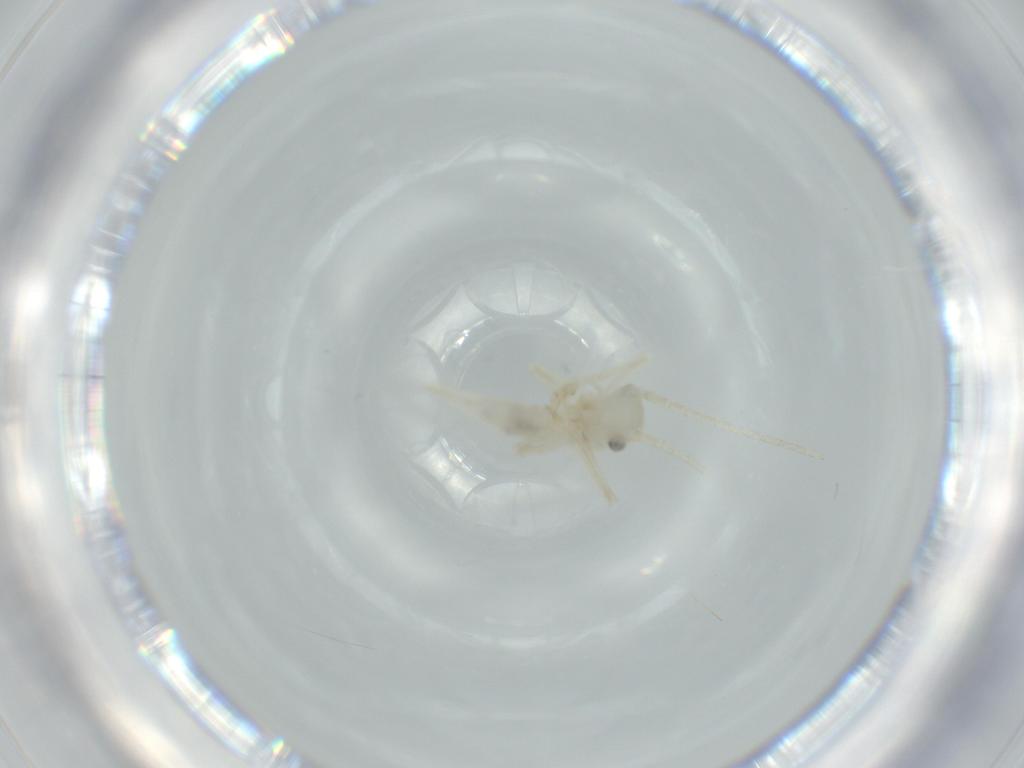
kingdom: Animalia
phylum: Arthropoda
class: Insecta
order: Orthoptera
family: Trigonidiidae
